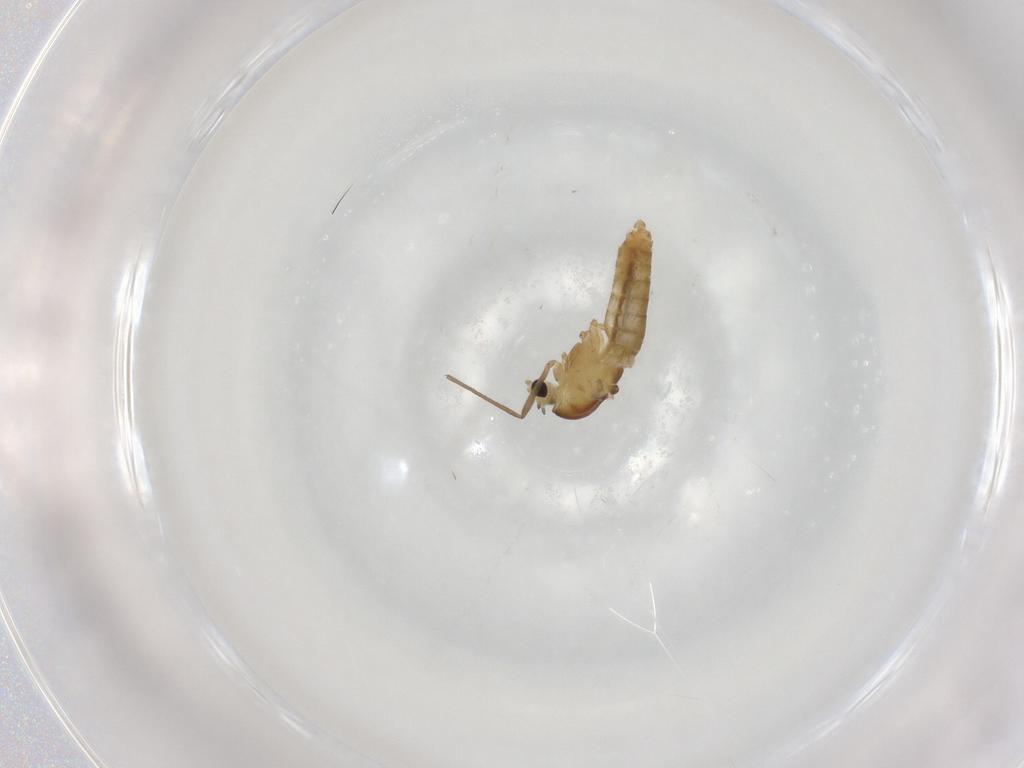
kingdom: Animalia
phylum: Arthropoda
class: Insecta
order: Diptera
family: Chironomidae
